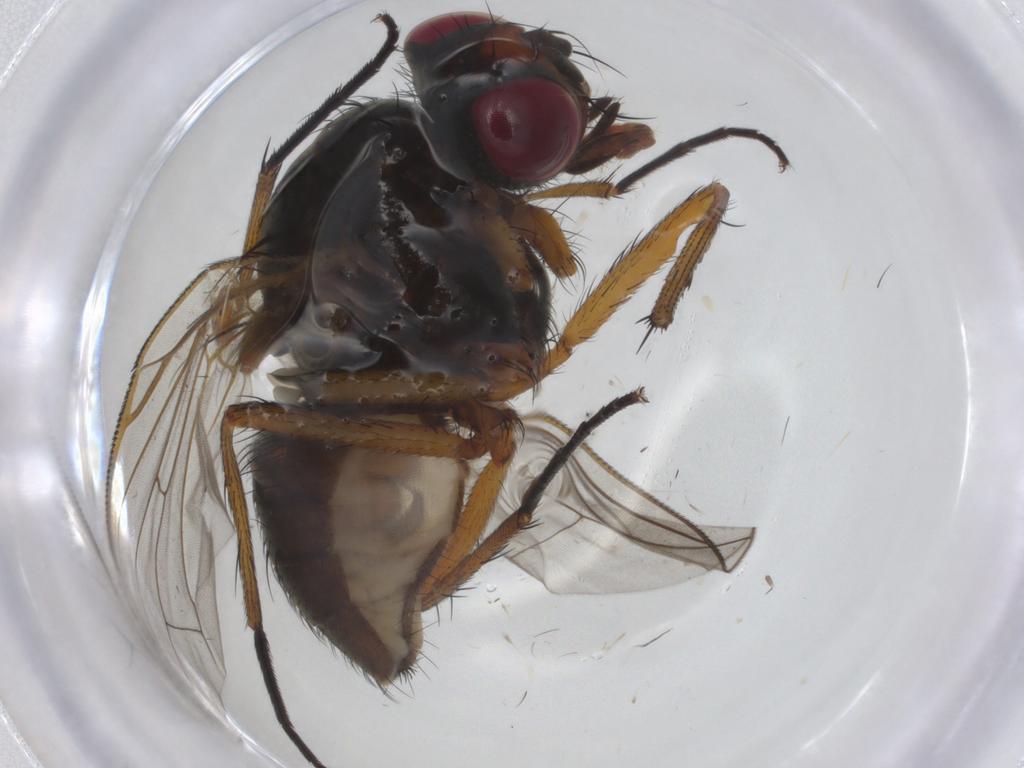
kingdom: Animalia
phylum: Arthropoda
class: Insecta
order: Diptera
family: Anthomyiidae
